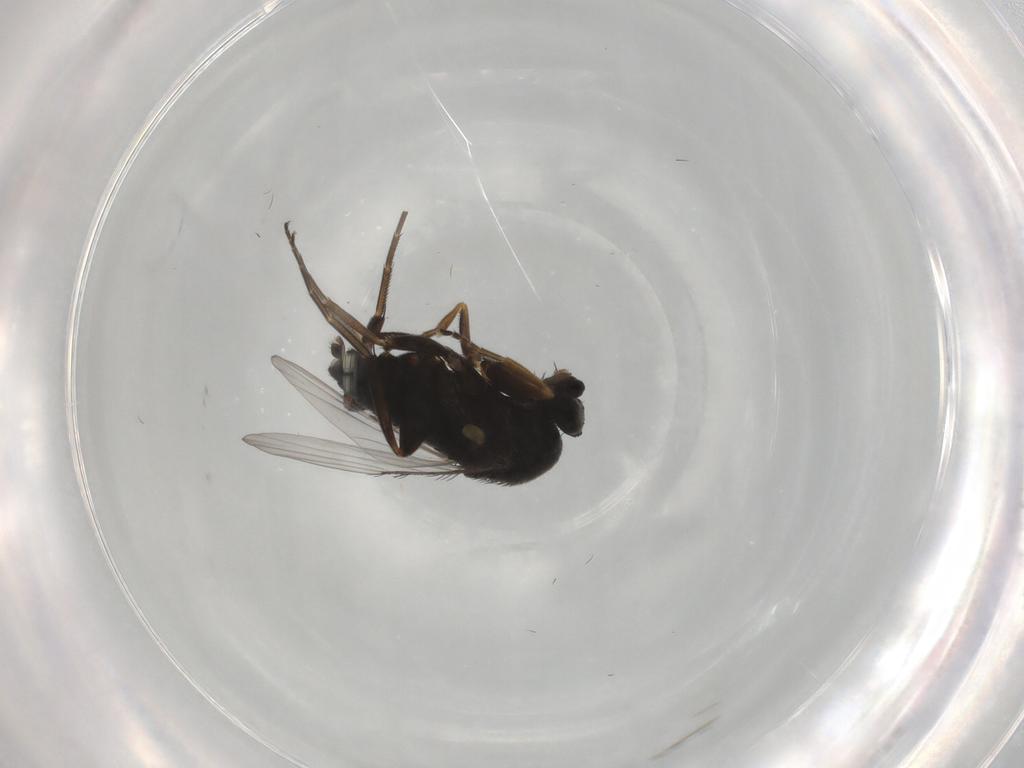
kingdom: Animalia
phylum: Arthropoda
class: Insecta
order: Diptera
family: Phoridae
